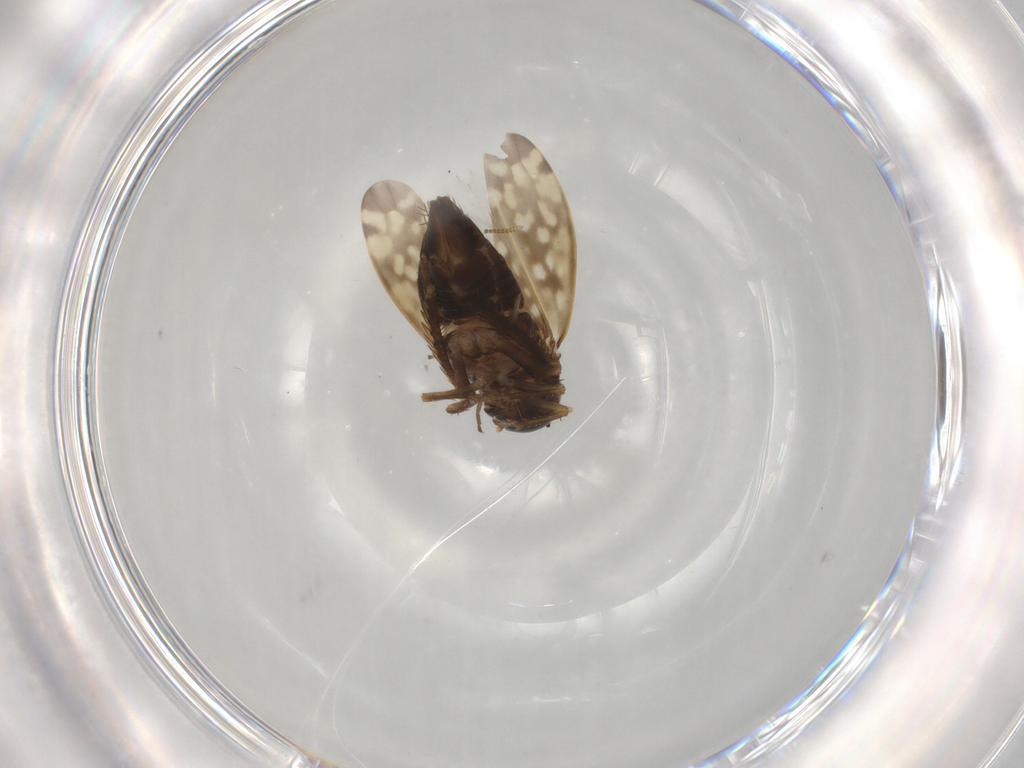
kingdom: Animalia
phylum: Arthropoda
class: Insecta
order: Hemiptera
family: Cicadellidae
